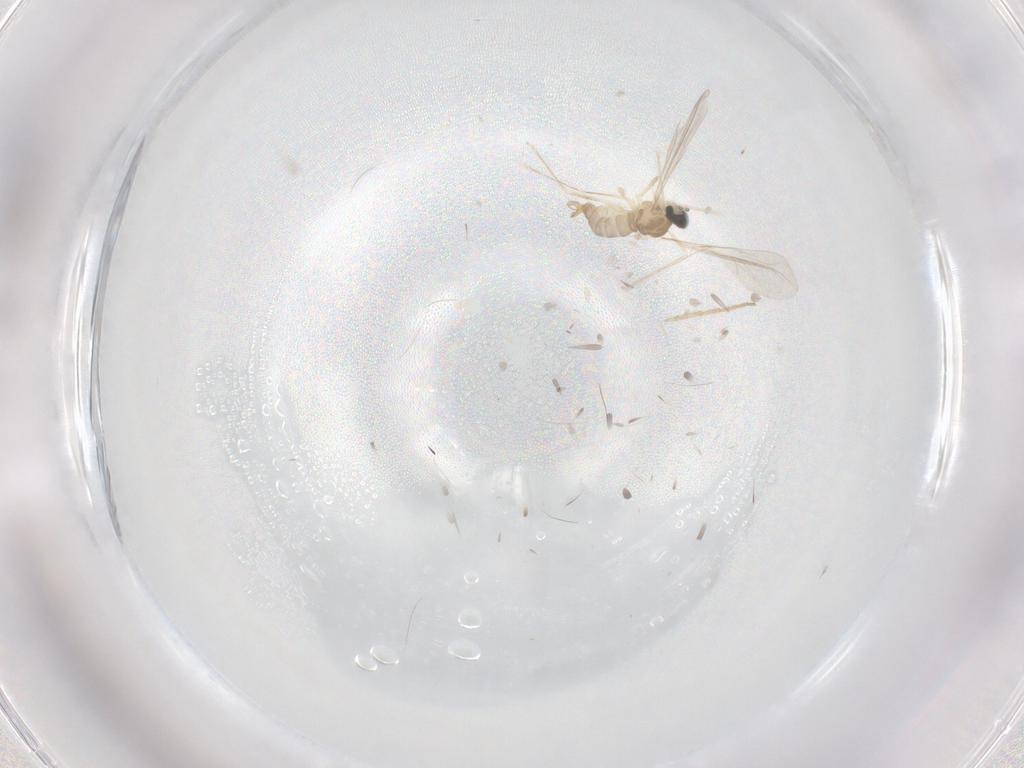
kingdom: Animalia
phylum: Arthropoda
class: Insecta
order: Diptera
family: Cecidomyiidae
